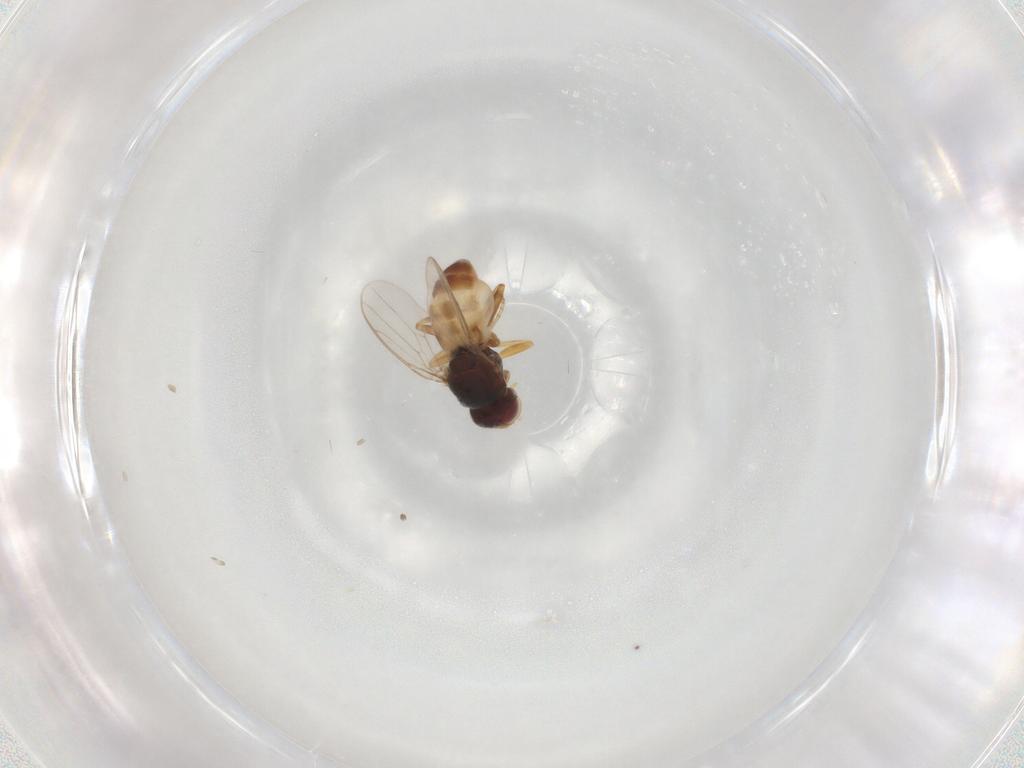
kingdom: Animalia
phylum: Arthropoda
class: Insecta
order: Diptera
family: Chloropidae
